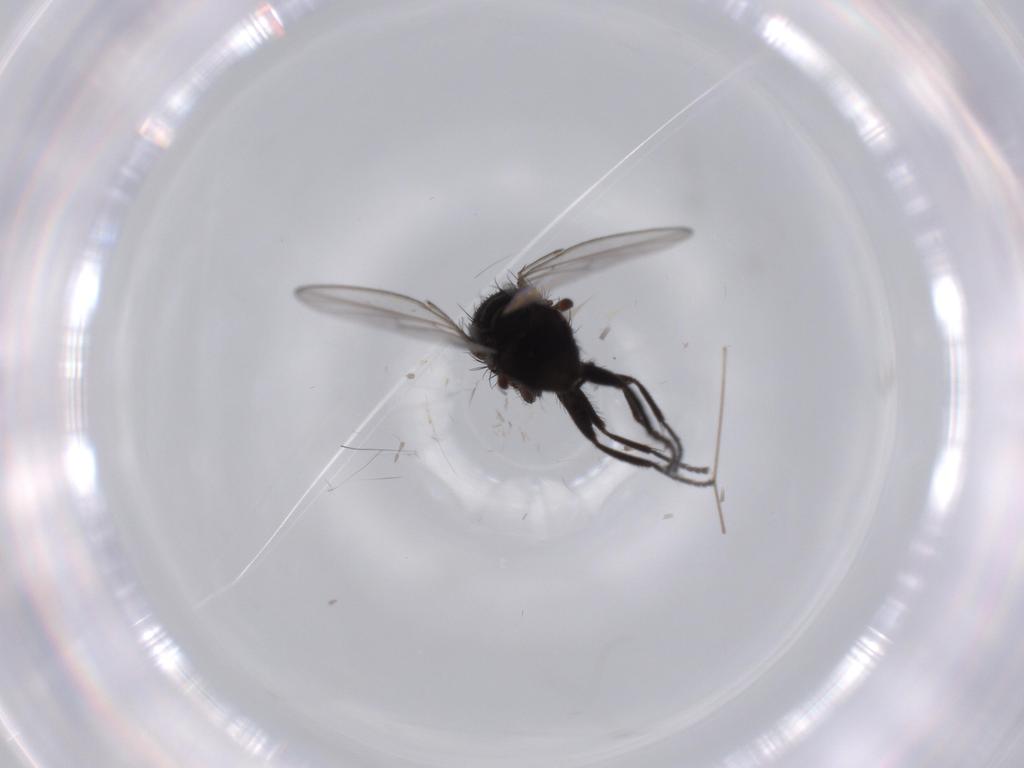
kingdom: Animalia
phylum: Arthropoda
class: Insecta
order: Diptera
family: Milichiidae
